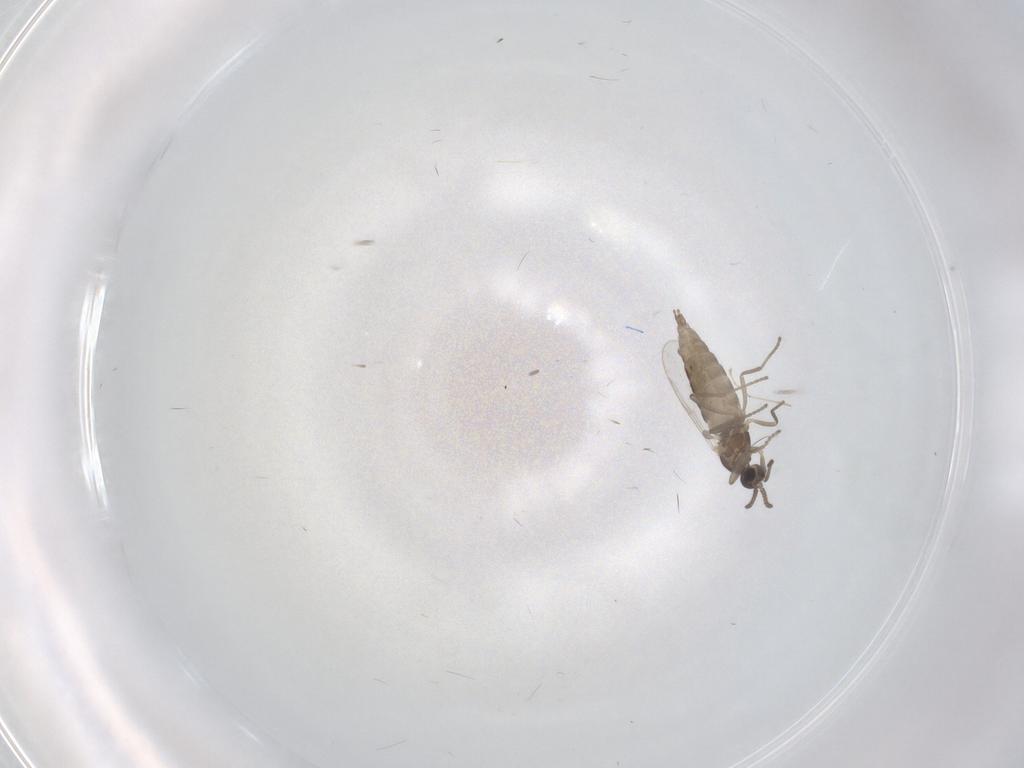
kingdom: Animalia
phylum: Arthropoda
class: Insecta
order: Diptera
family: Cecidomyiidae
